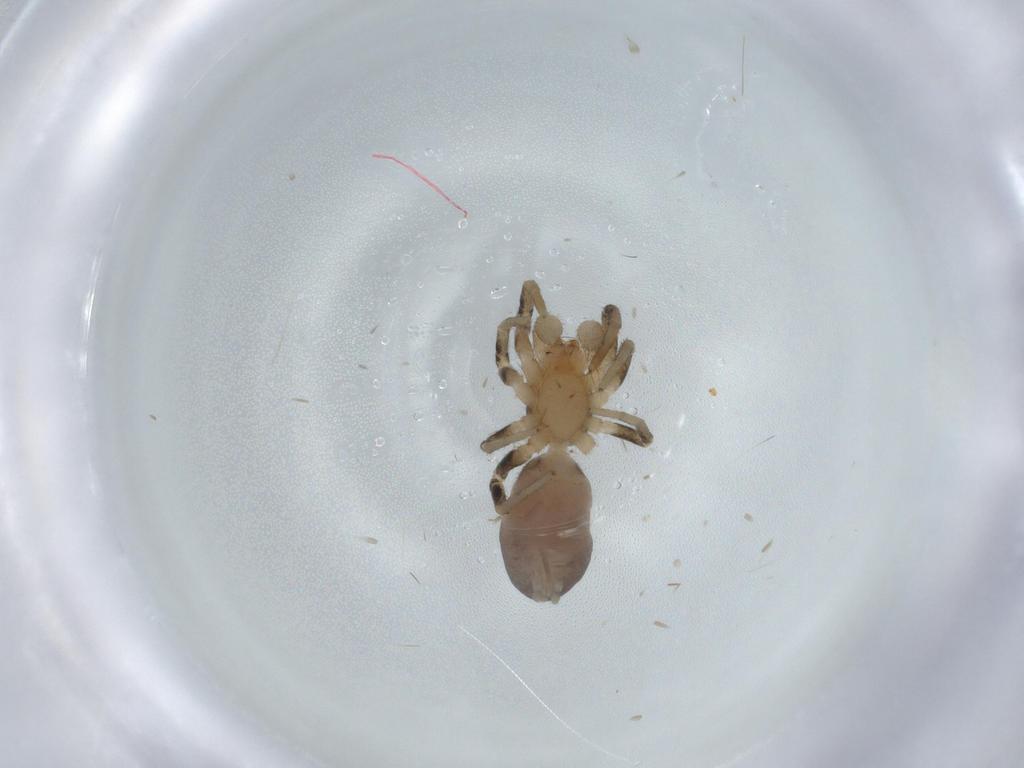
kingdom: Animalia
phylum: Arthropoda
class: Arachnida
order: Araneae
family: Gnaphosidae
